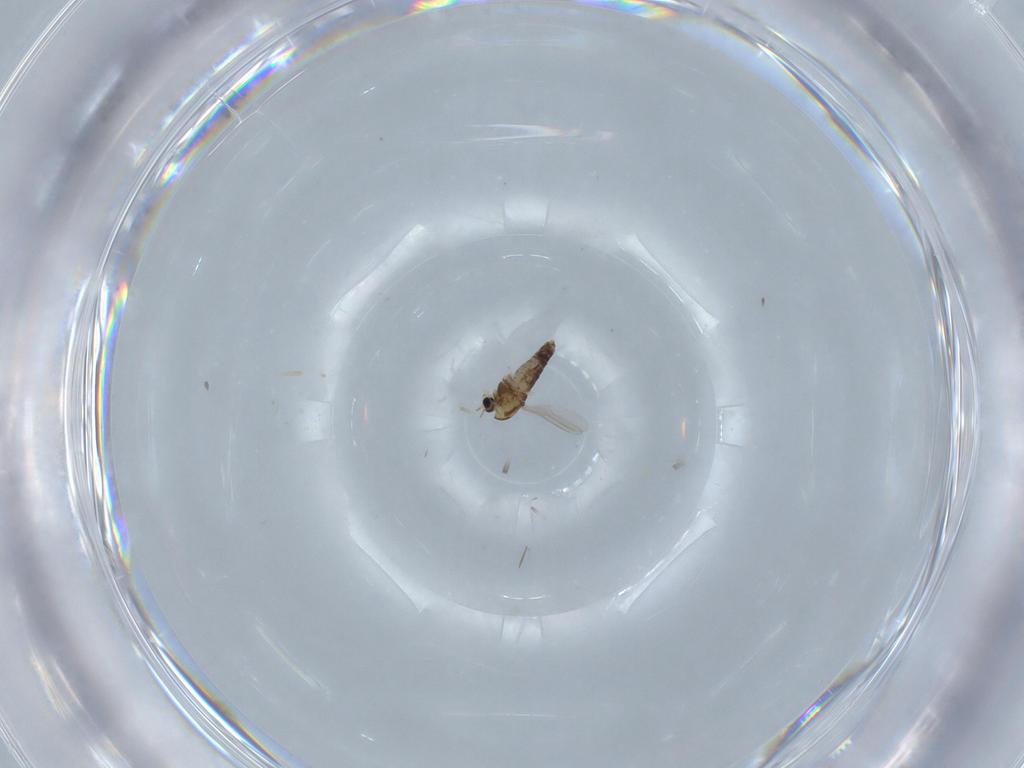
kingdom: Animalia
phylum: Arthropoda
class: Insecta
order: Diptera
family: Chironomidae
